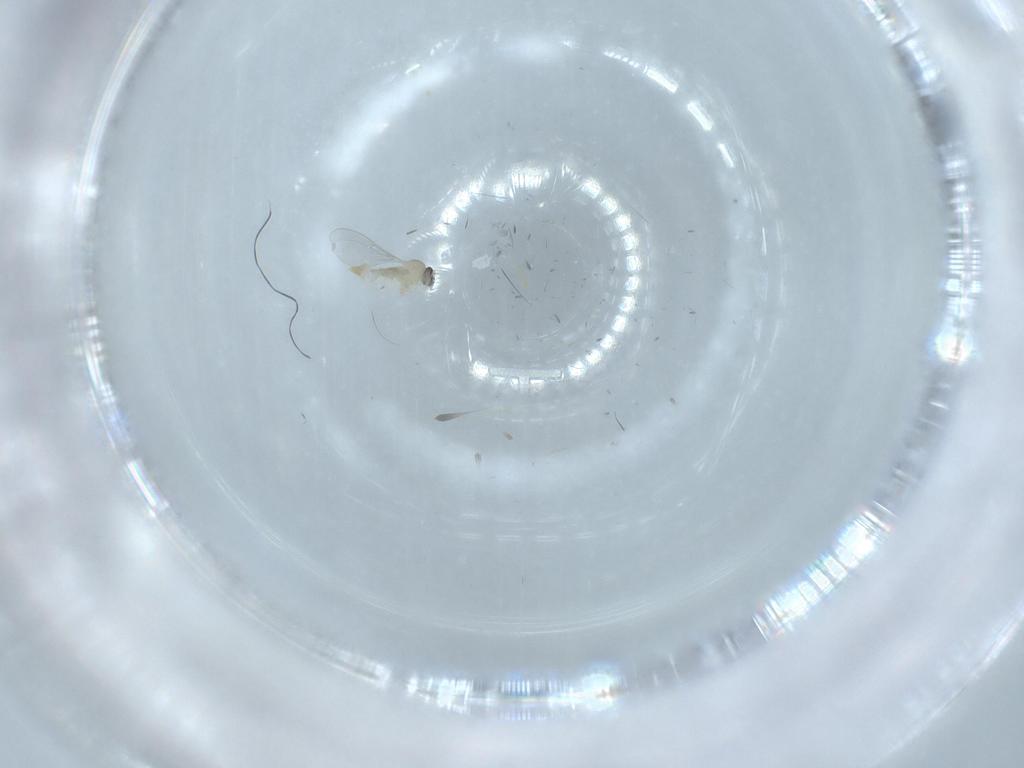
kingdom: Animalia
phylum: Arthropoda
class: Insecta
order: Diptera
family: Cecidomyiidae
